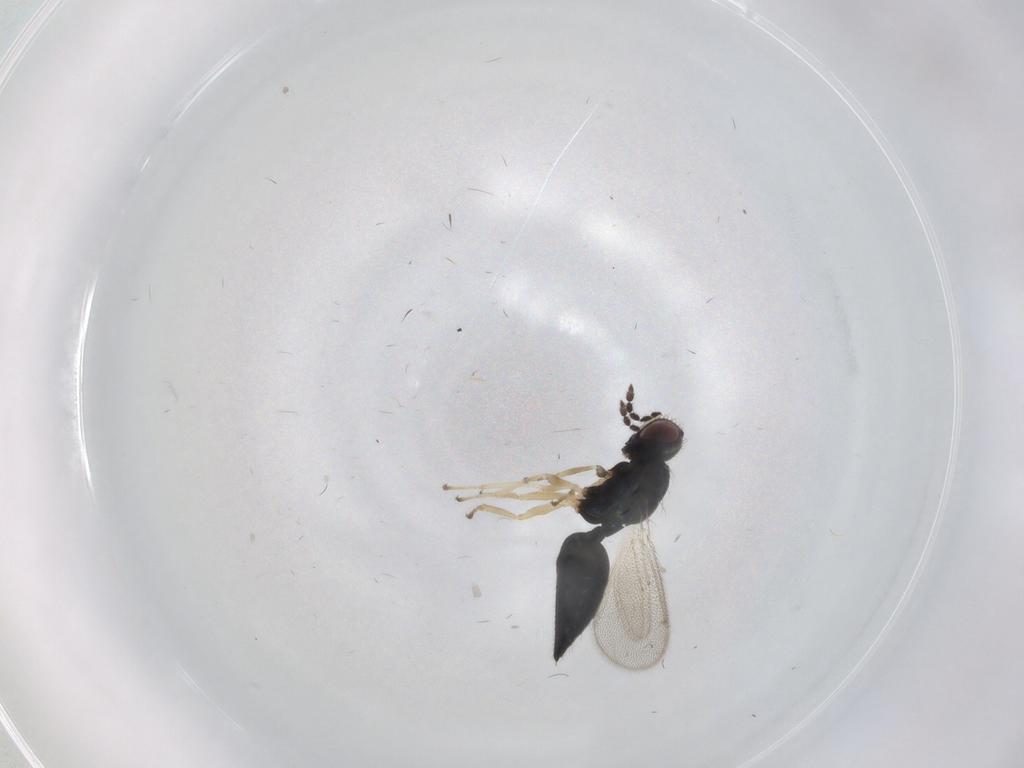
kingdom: Animalia
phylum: Arthropoda
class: Insecta
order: Hymenoptera
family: Eulophidae
